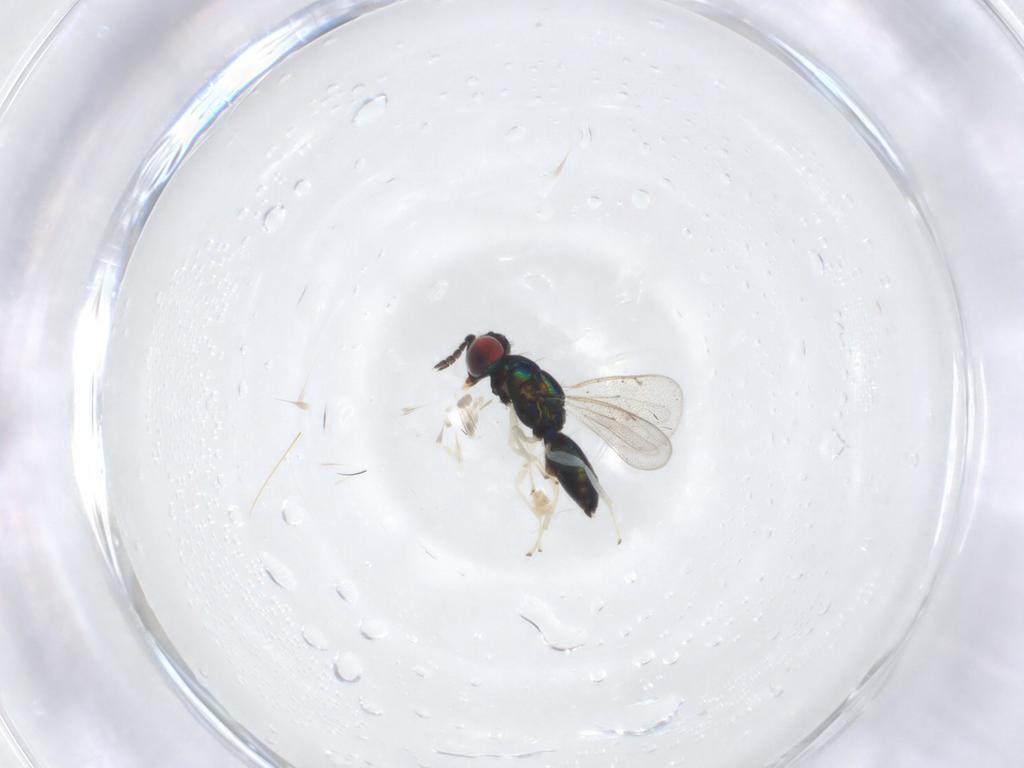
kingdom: Animalia
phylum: Arthropoda
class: Insecta
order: Hymenoptera
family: Eulophidae
